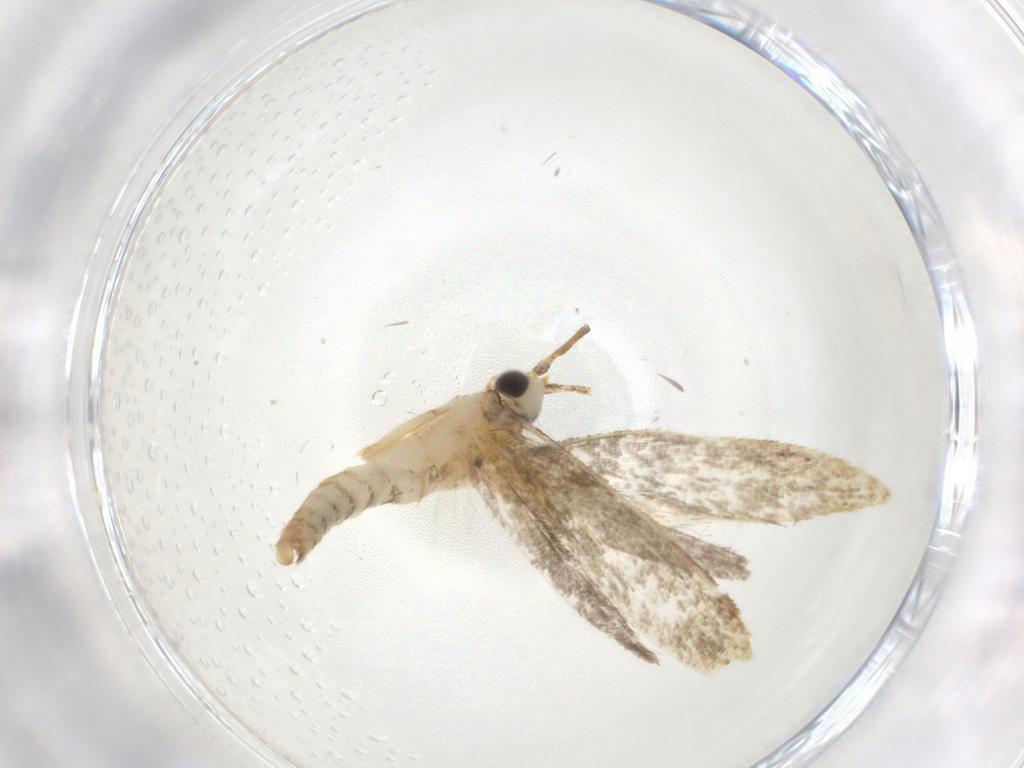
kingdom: Animalia
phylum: Arthropoda
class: Insecta
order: Lepidoptera
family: Tineidae
